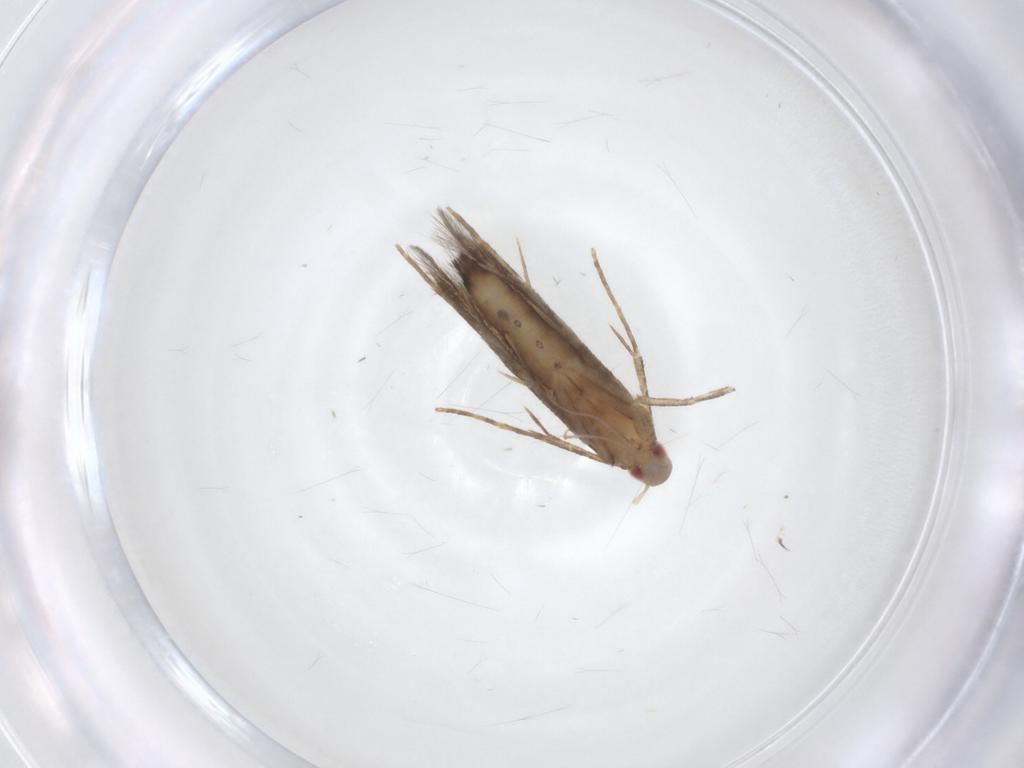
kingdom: Animalia
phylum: Arthropoda
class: Insecta
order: Lepidoptera
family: Cosmopterigidae
